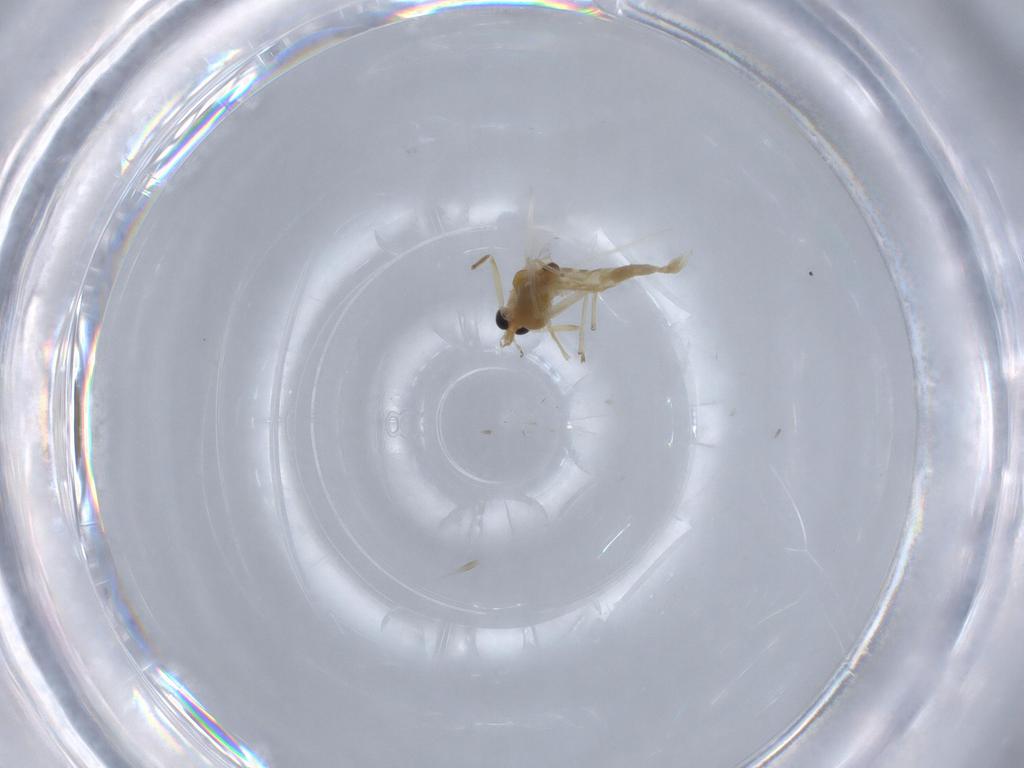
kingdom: Animalia
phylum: Arthropoda
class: Insecta
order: Diptera
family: Chironomidae
